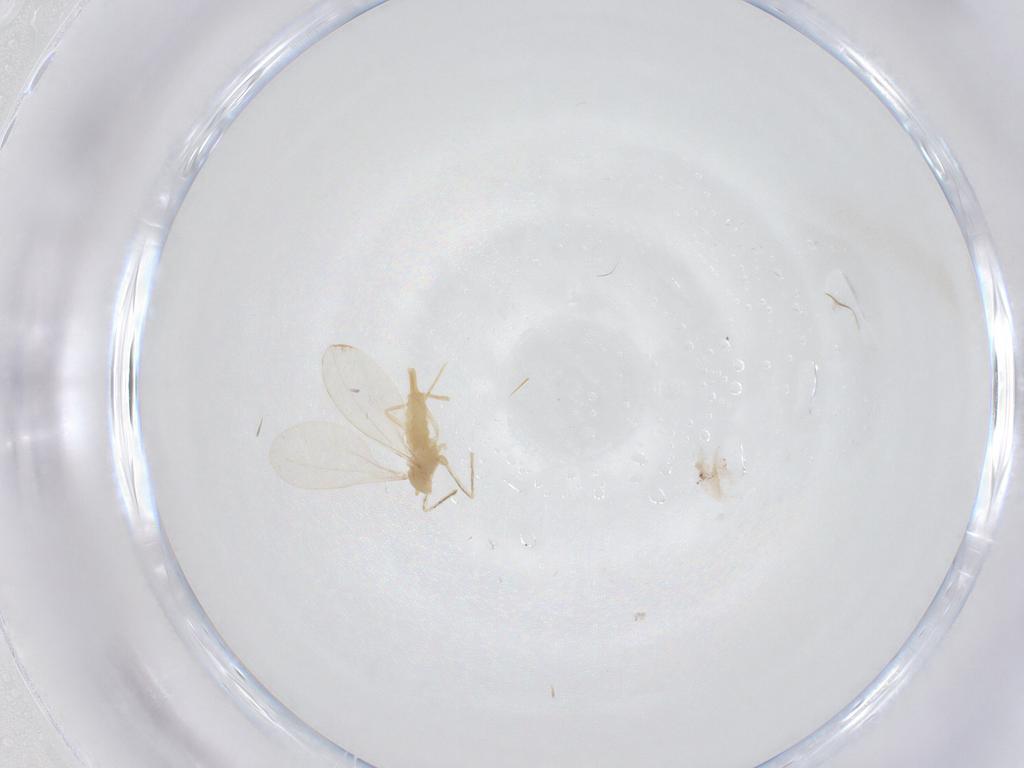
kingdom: Animalia
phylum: Arthropoda
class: Insecta
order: Diptera
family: Cecidomyiidae
